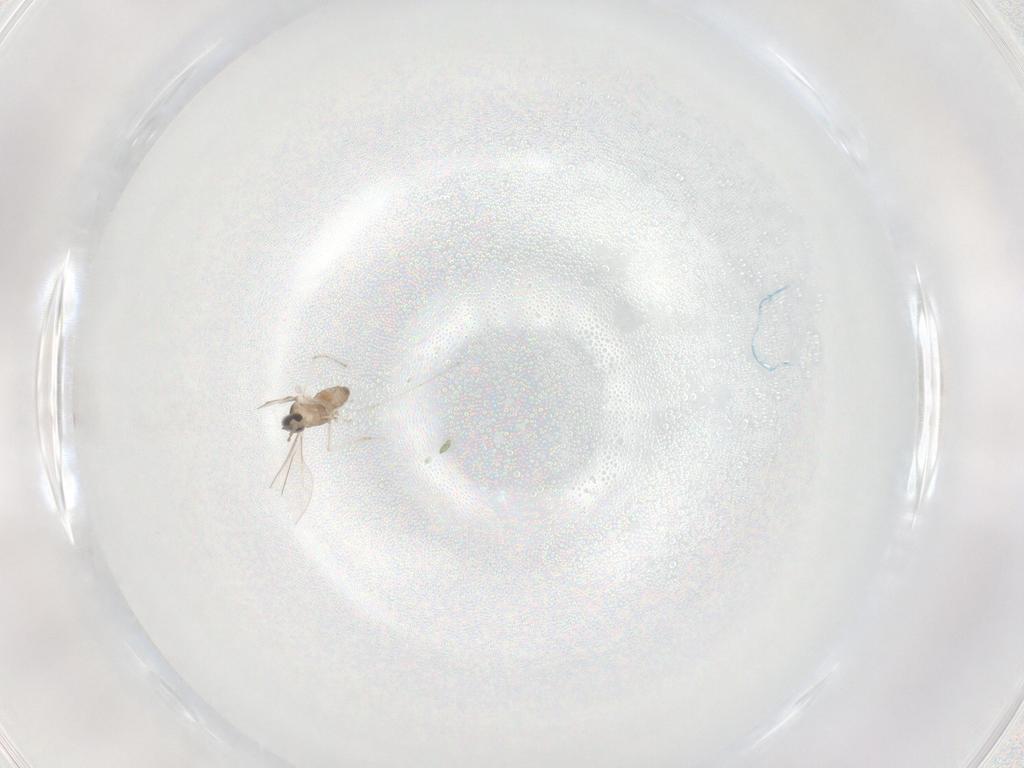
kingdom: Animalia
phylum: Arthropoda
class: Insecta
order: Diptera
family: Cecidomyiidae
